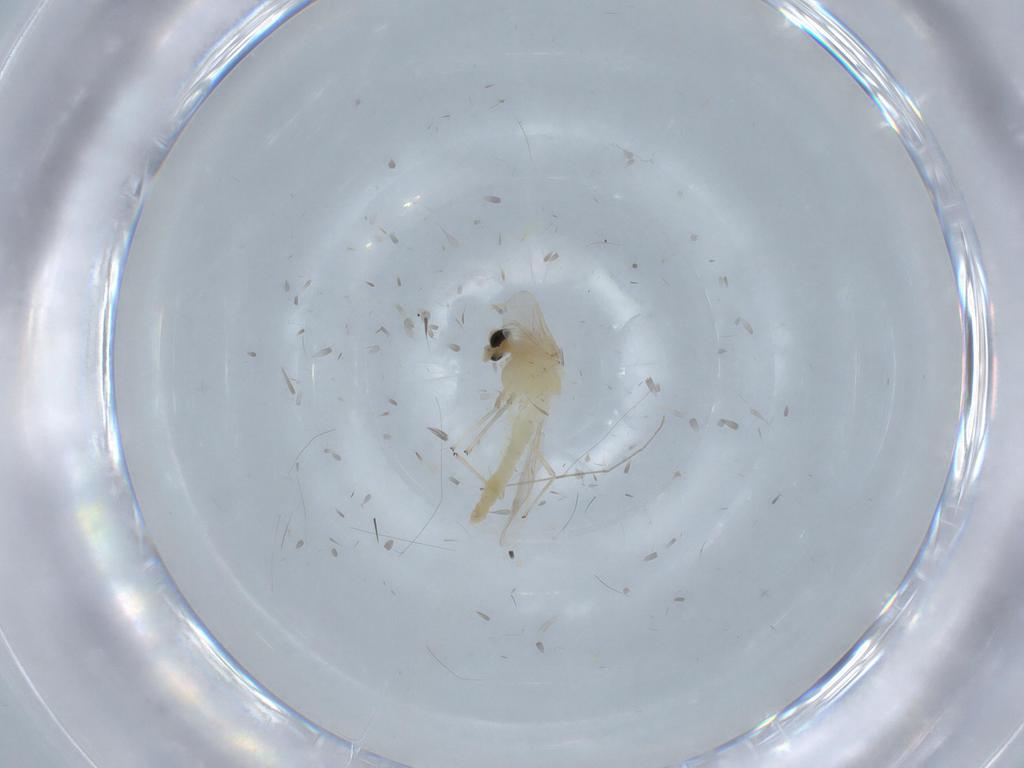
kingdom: Animalia
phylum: Arthropoda
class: Insecta
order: Diptera
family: Chironomidae
